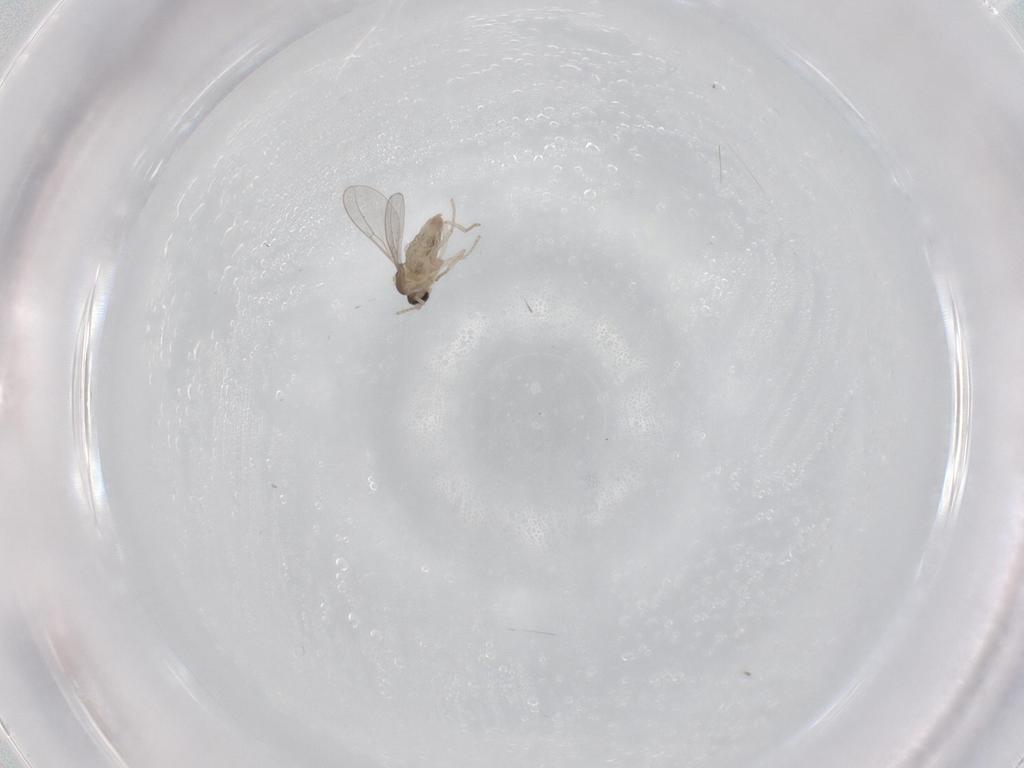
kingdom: Animalia
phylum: Arthropoda
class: Insecta
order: Diptera
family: Cecidomyiidae
